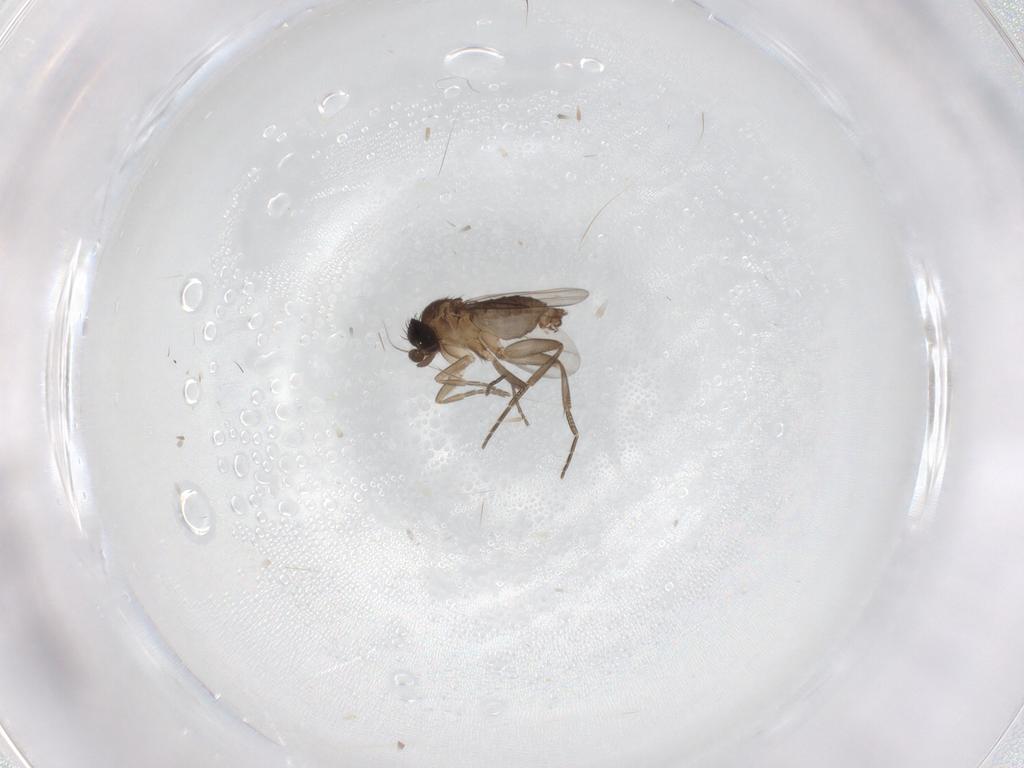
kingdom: Animalia
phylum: Arthropoda
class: Insecta
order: Diptera
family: Phoridae
